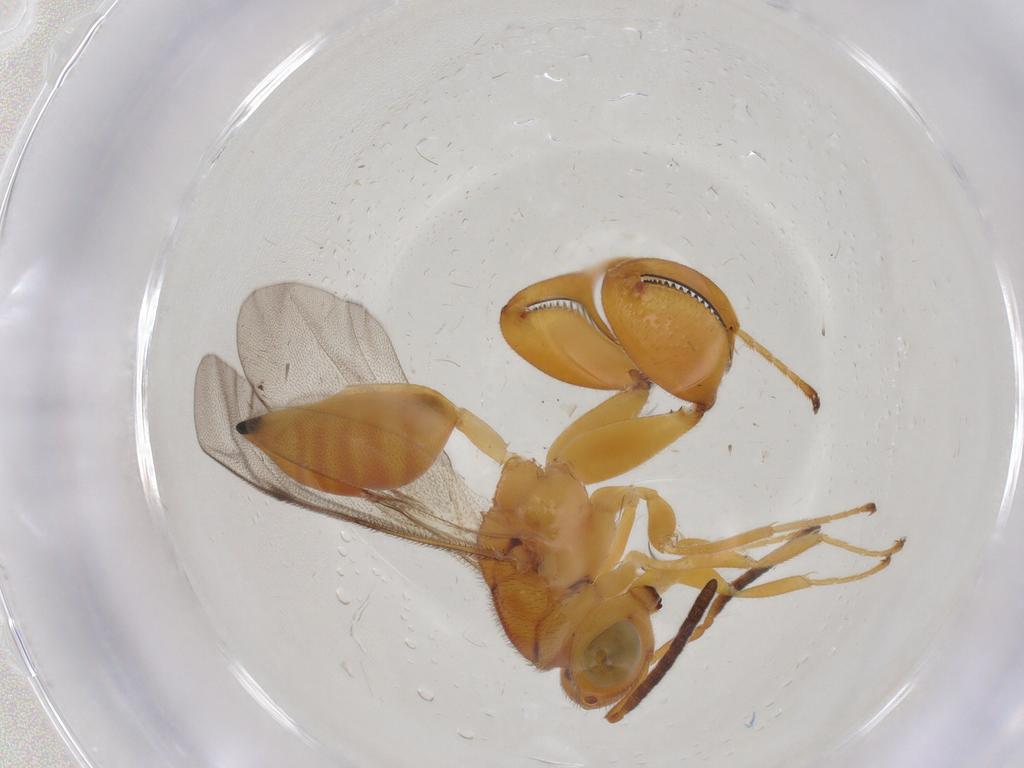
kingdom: Animalia
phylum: Arthropoda
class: Insecta
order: Hymenoptera
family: Chalcididae
